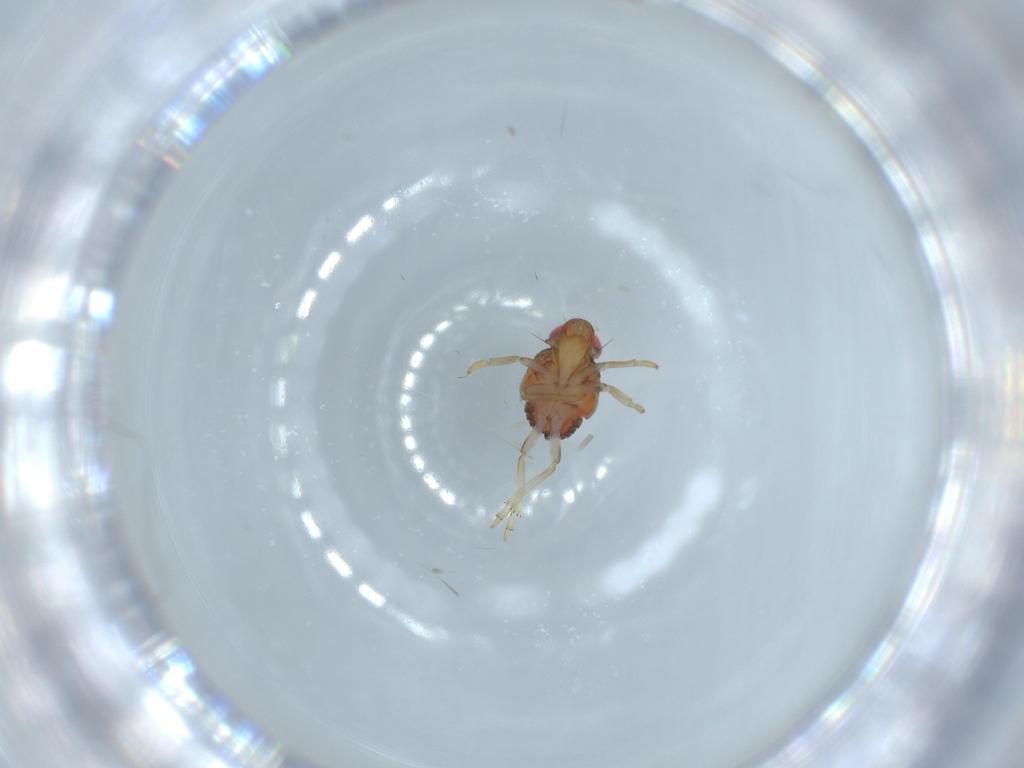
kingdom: Animalia
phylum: Arthropoda
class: Insecta
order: Hemiptera
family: Issidae
